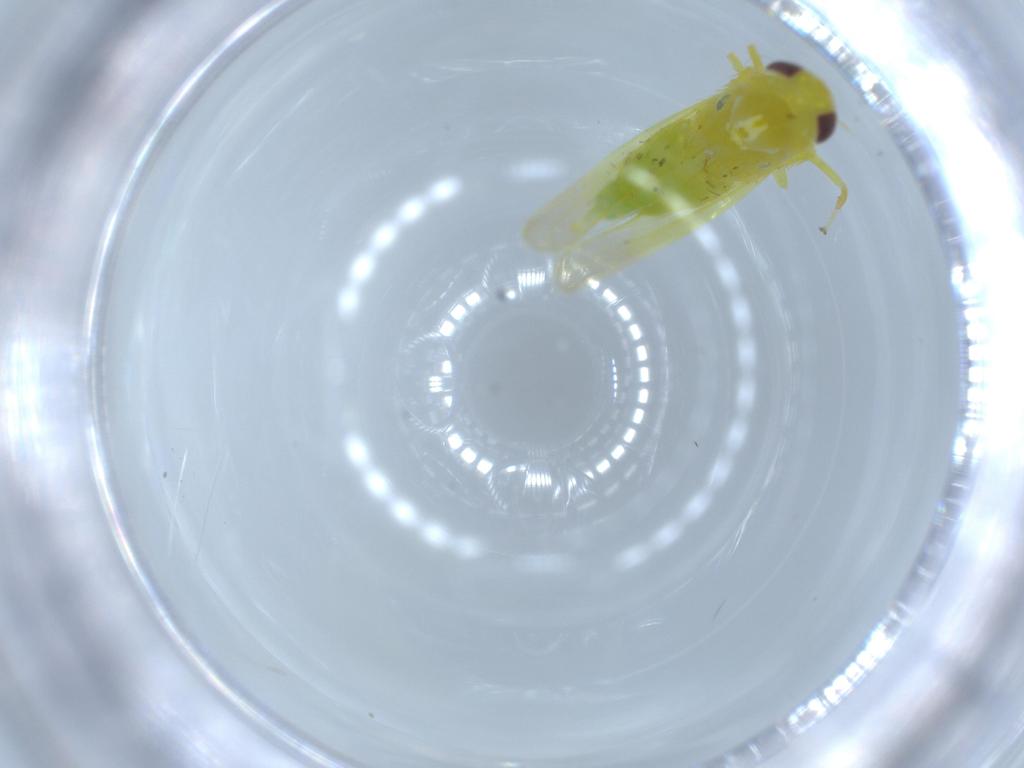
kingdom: Animalia
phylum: Arthropoda
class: Insecta
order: Hemiptera
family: Cicadellidae
